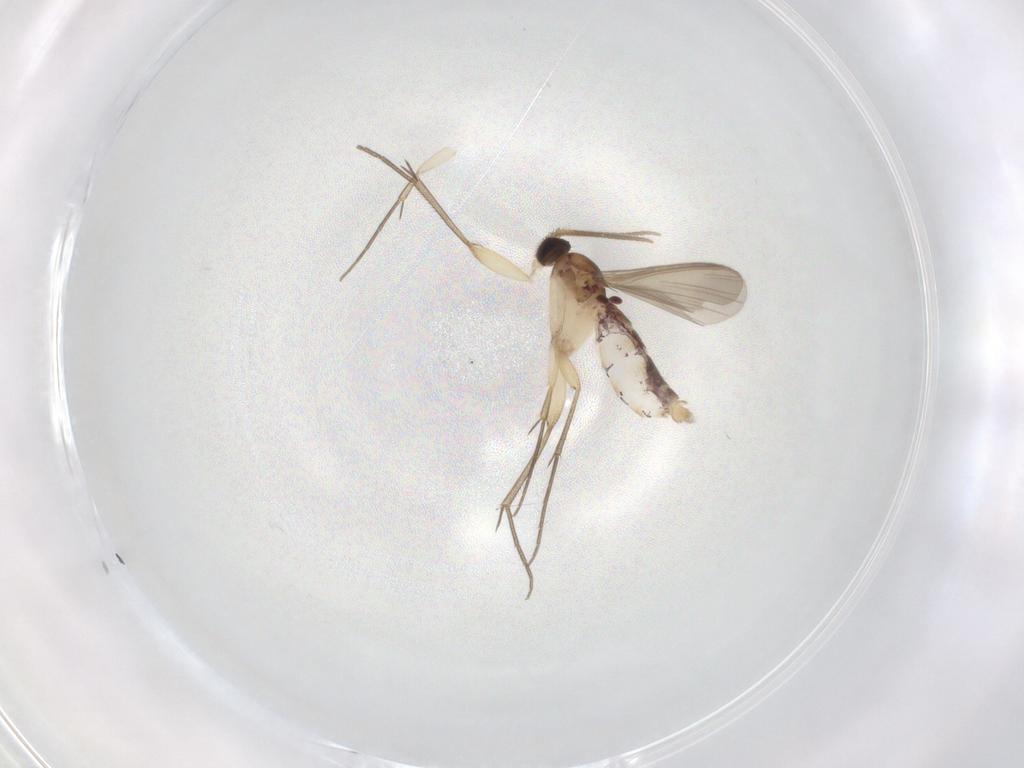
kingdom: Animalia
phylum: Arthropoda
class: Insecta
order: Diptera
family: Mycetophilidae
